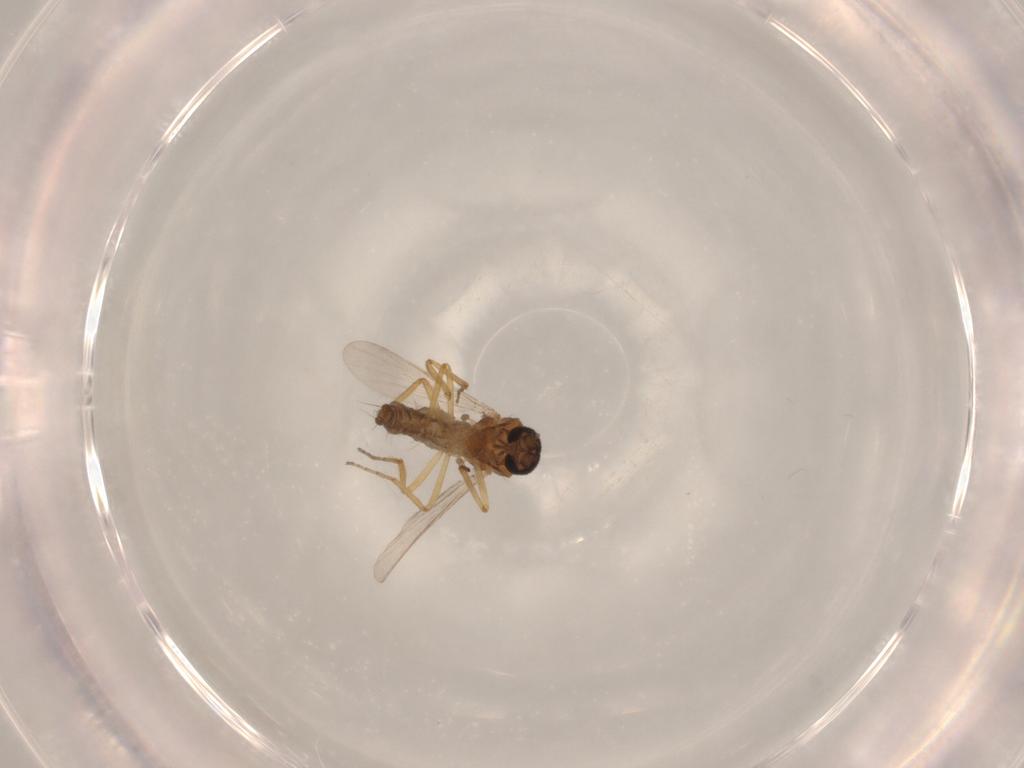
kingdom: Animalia
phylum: Arthropoda
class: Insecta
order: Diptera
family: Ceratopogonidae
